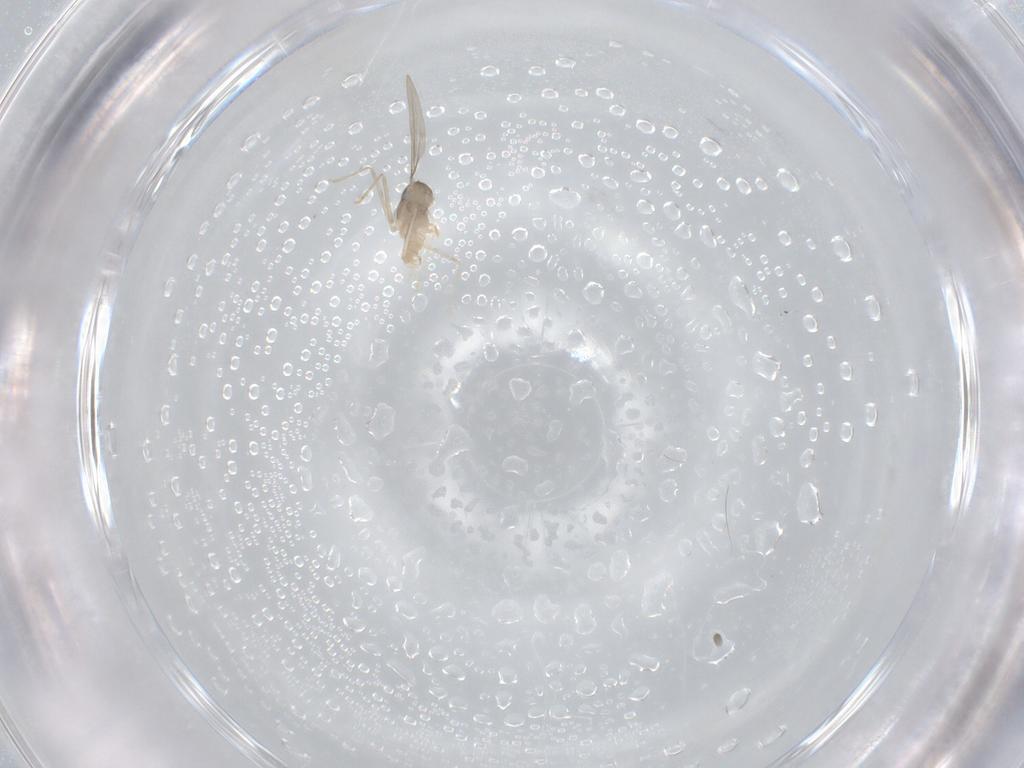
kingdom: Animalia
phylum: Arthropoda
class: Insecta
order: Diptera
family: Cecidomyiidae
